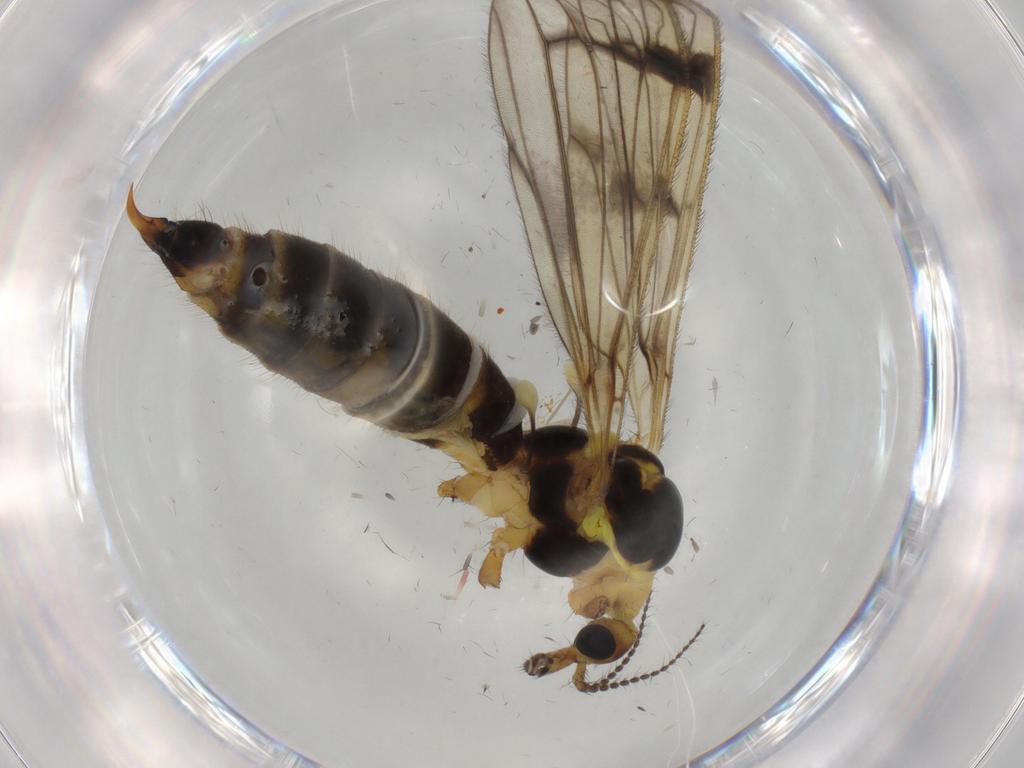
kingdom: Animalia
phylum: Arthropoda
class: Insecta
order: Diptera
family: Limoniidae
